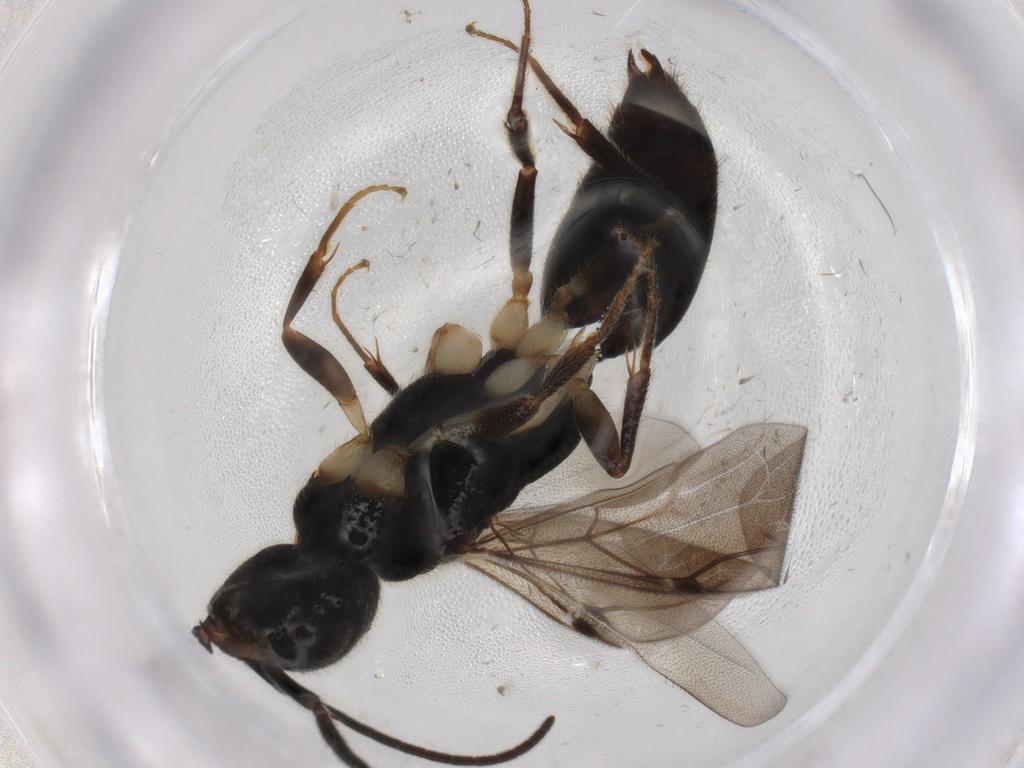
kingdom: Animalia
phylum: Arthropoda
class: Insecta
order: Hymenoptera
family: Bethylidae
